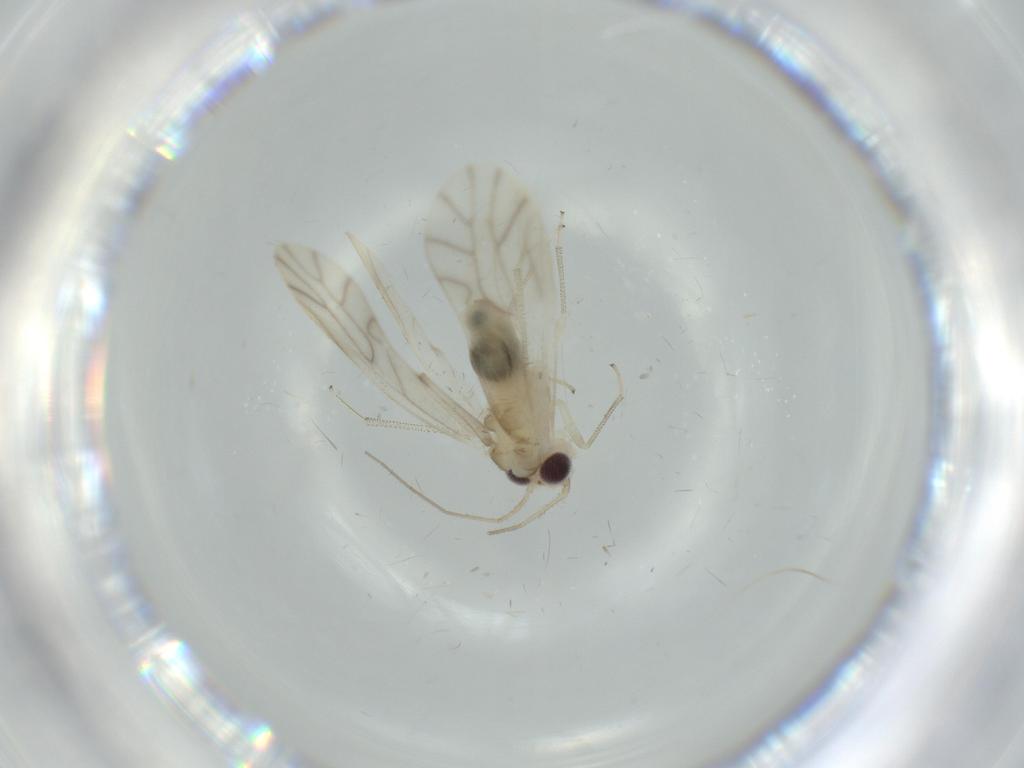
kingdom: Animalia
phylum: Arthropoda
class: Insecta
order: Psocodea
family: Caeciliusidae
